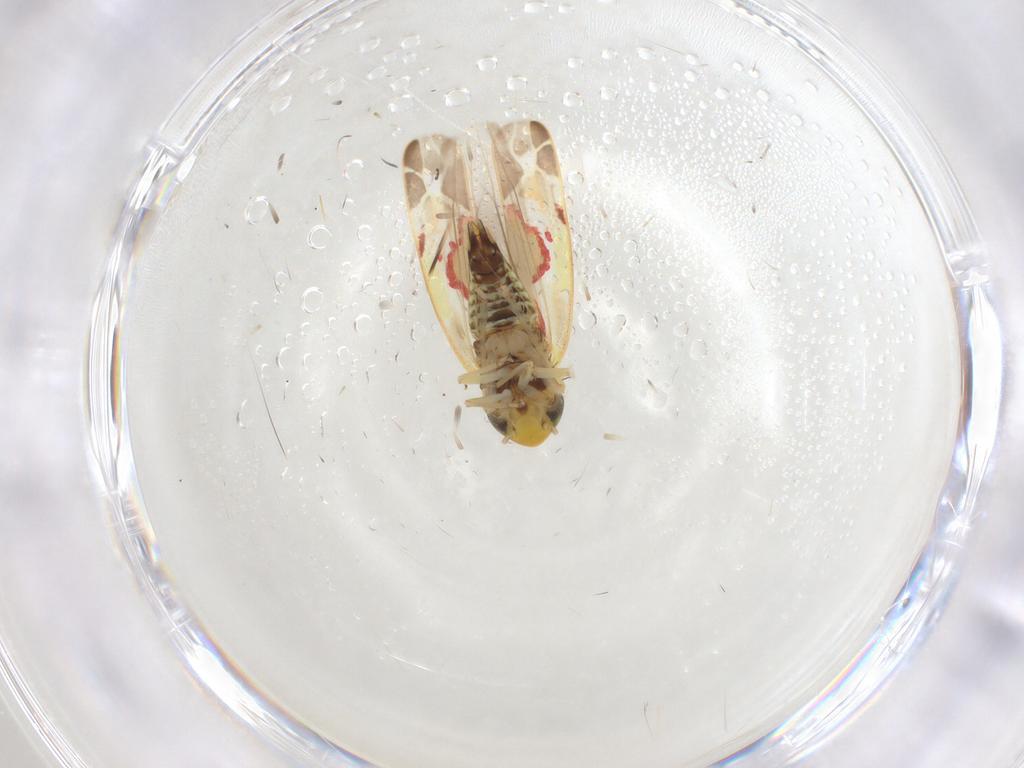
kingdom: Animalia
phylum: Arthropoda
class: Insecta
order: Hemiptera
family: Cicadellidae
